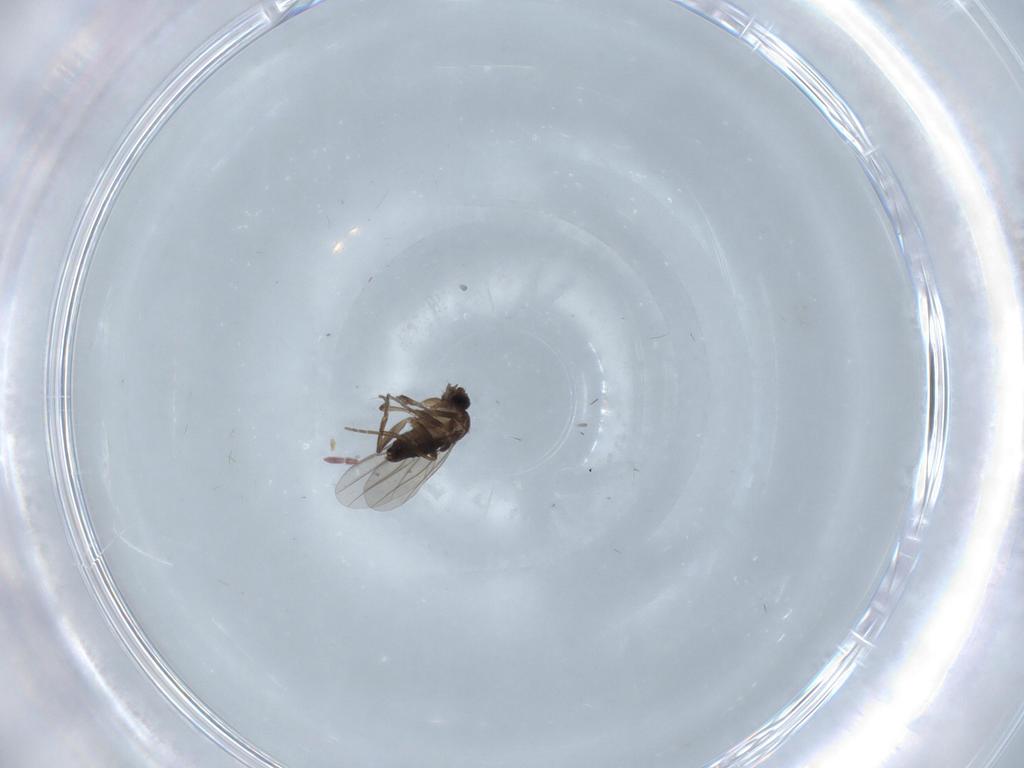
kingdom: Animalia
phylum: Arthropoda
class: Insecta
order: Diptera
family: Phoridae
